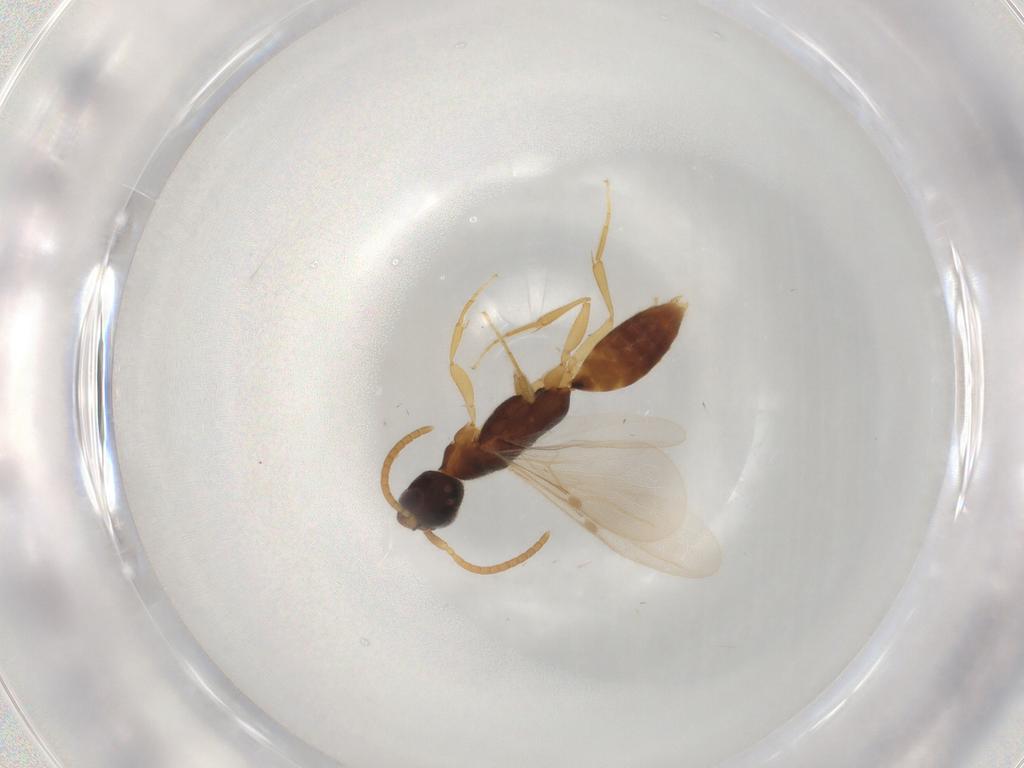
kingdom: Animalia
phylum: Arthropoda
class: Insecta
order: Hymenoptera
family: Bethylidae
